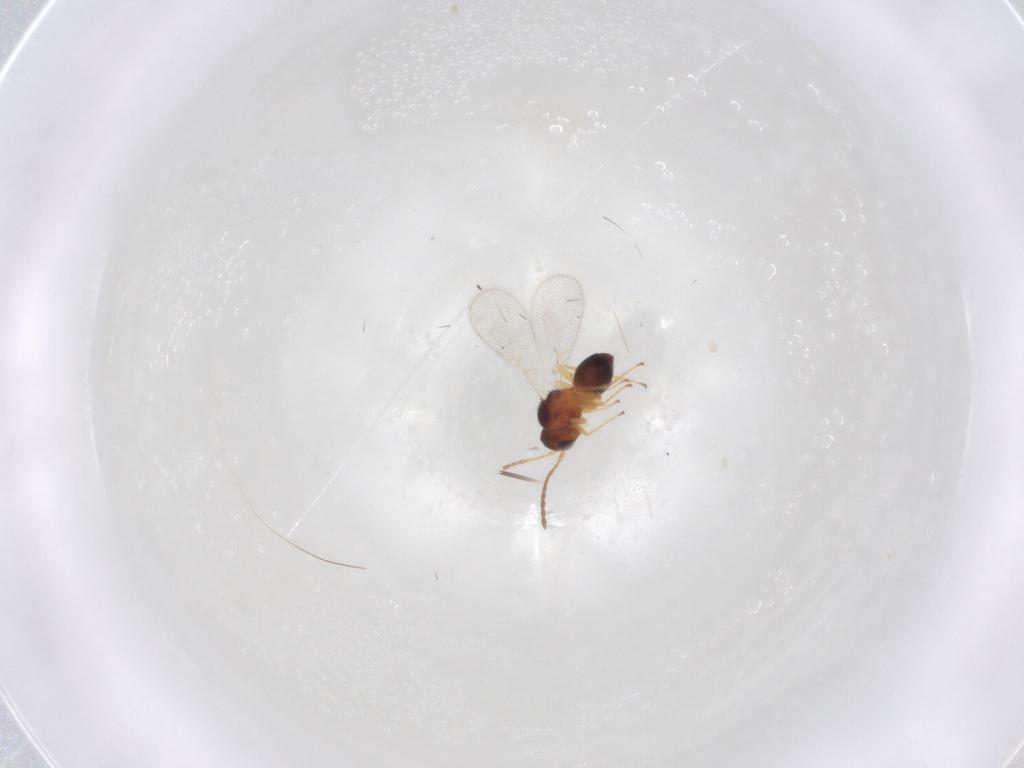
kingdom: Animalia
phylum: Arthropoda
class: Insecta
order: Hymenoptera
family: Figitidae
